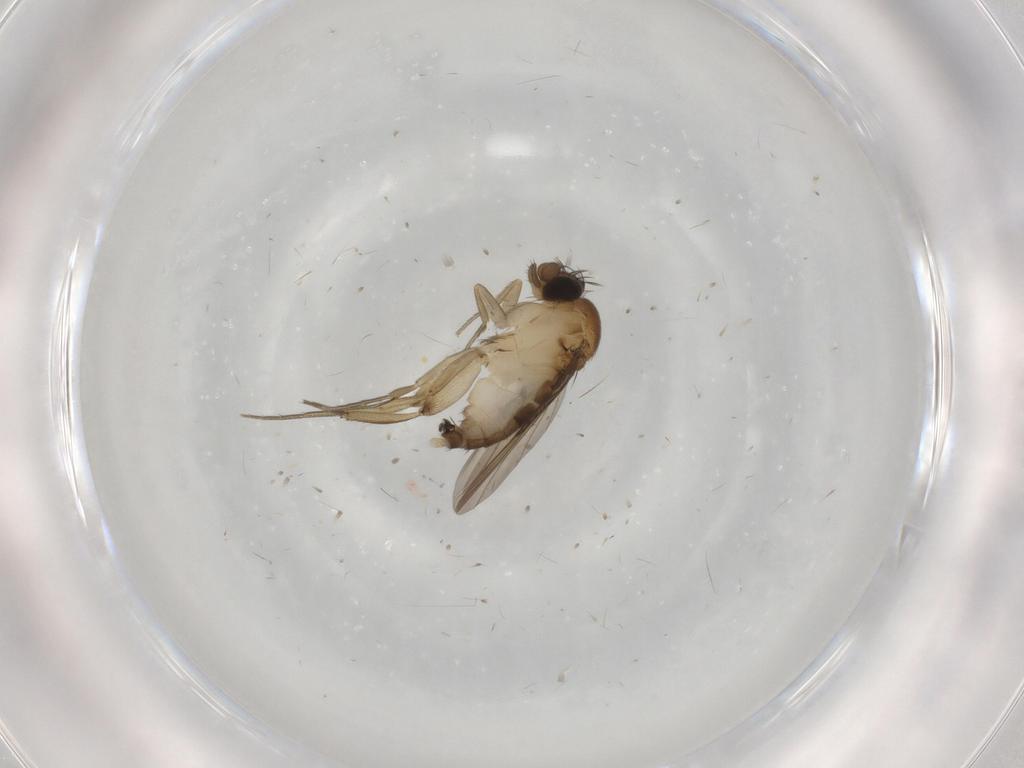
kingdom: Animalia
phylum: Arthropoda
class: Insecta
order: Diptera
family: Phoridae
